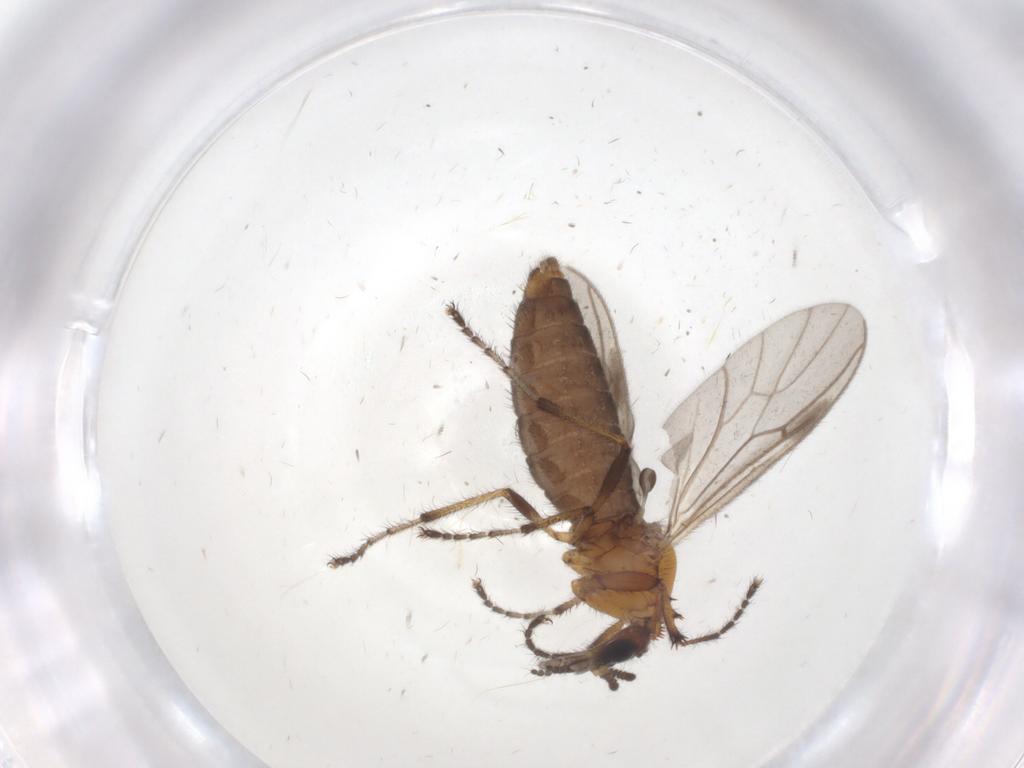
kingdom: Animalia
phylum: Arthropoda
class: Insecta
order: Diptera
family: Bibionidae
